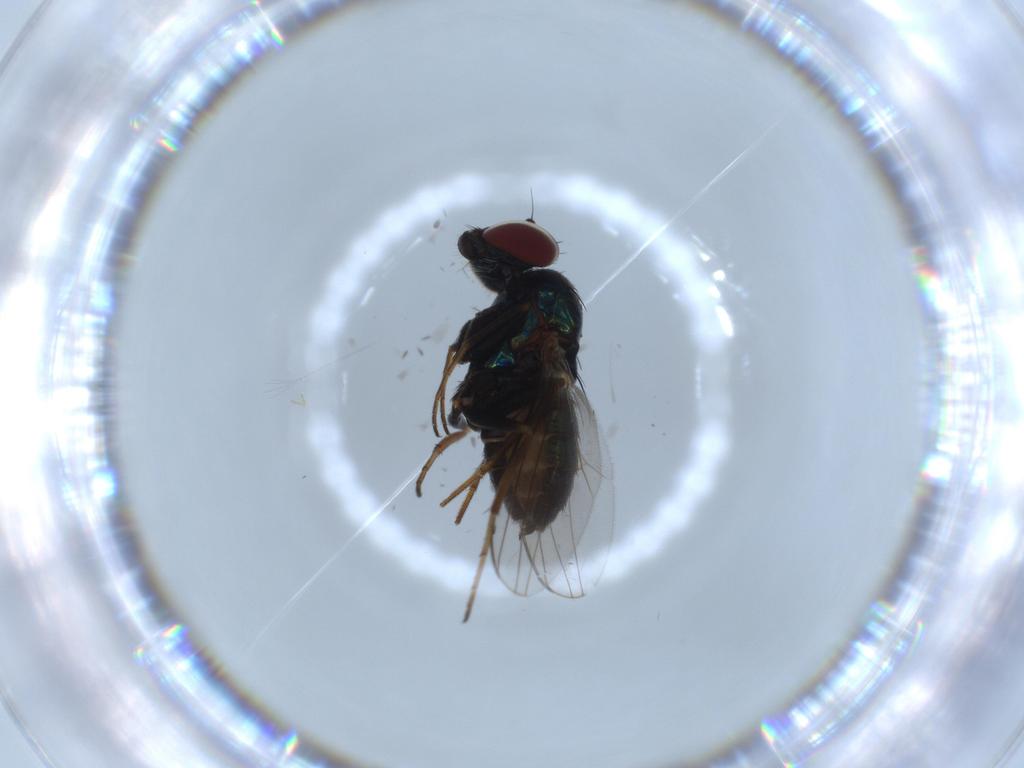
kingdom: Animalia
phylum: Arthropoda
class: Insecta
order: Diptera
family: Dolichopodidae
